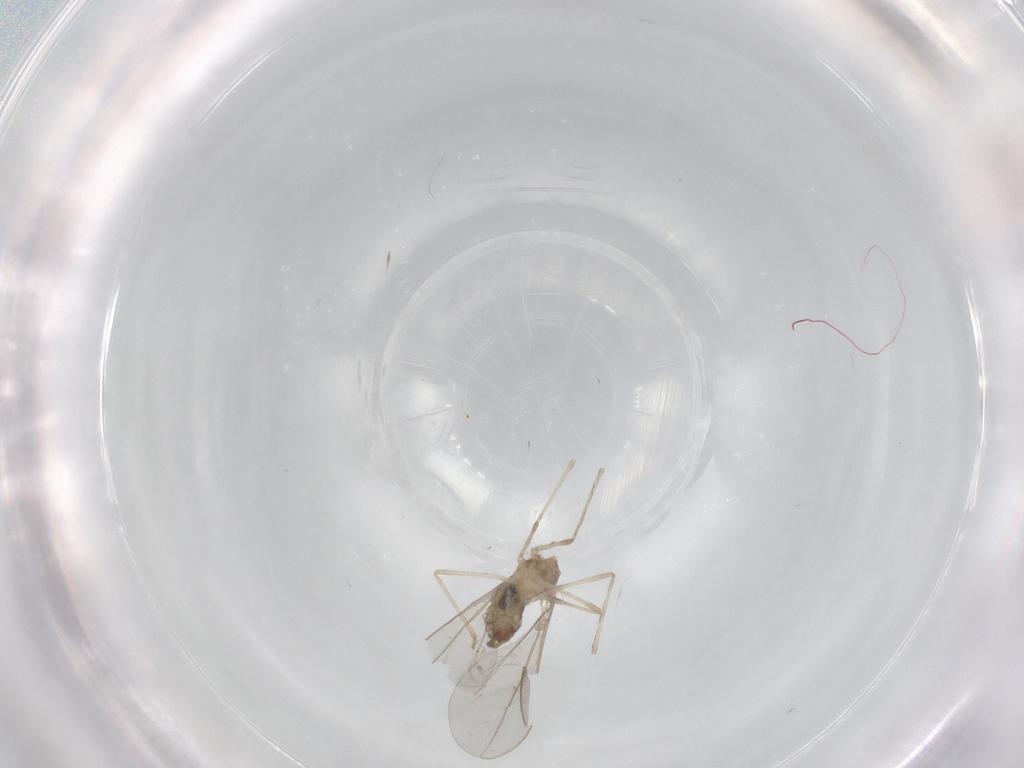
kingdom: Animalia
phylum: Arthropoda
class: Insecta
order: Diptera
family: Cecidomyiidae
